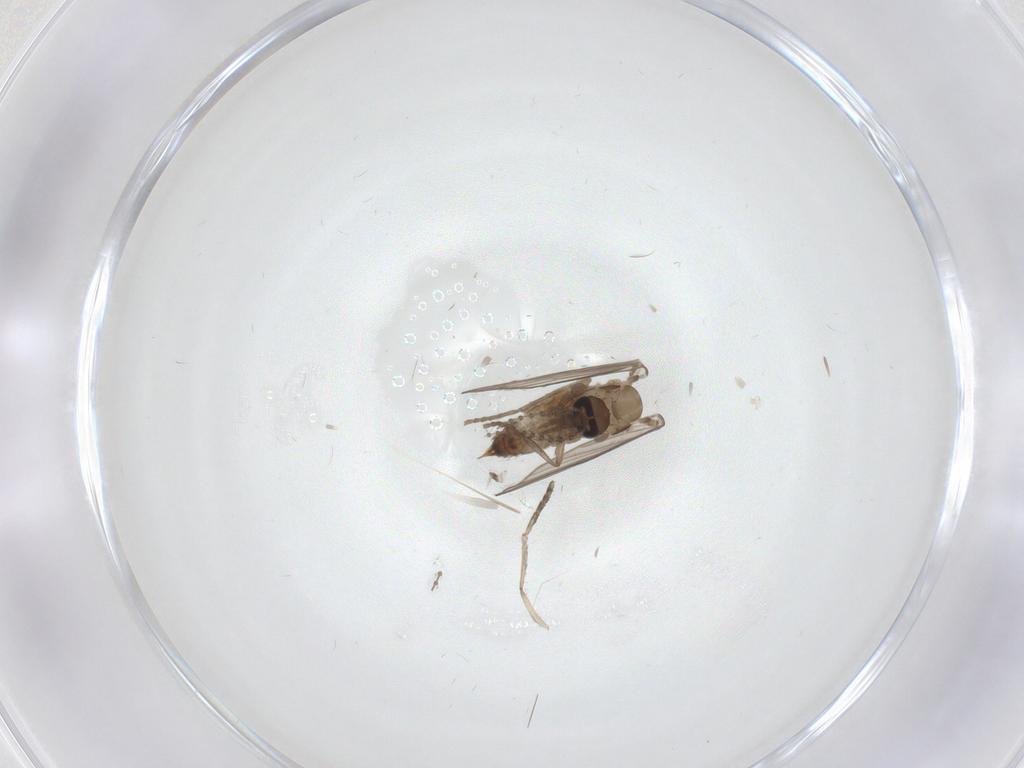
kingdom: Animalia
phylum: Arthropoda
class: Insecta
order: Diptera
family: Psychodidae
